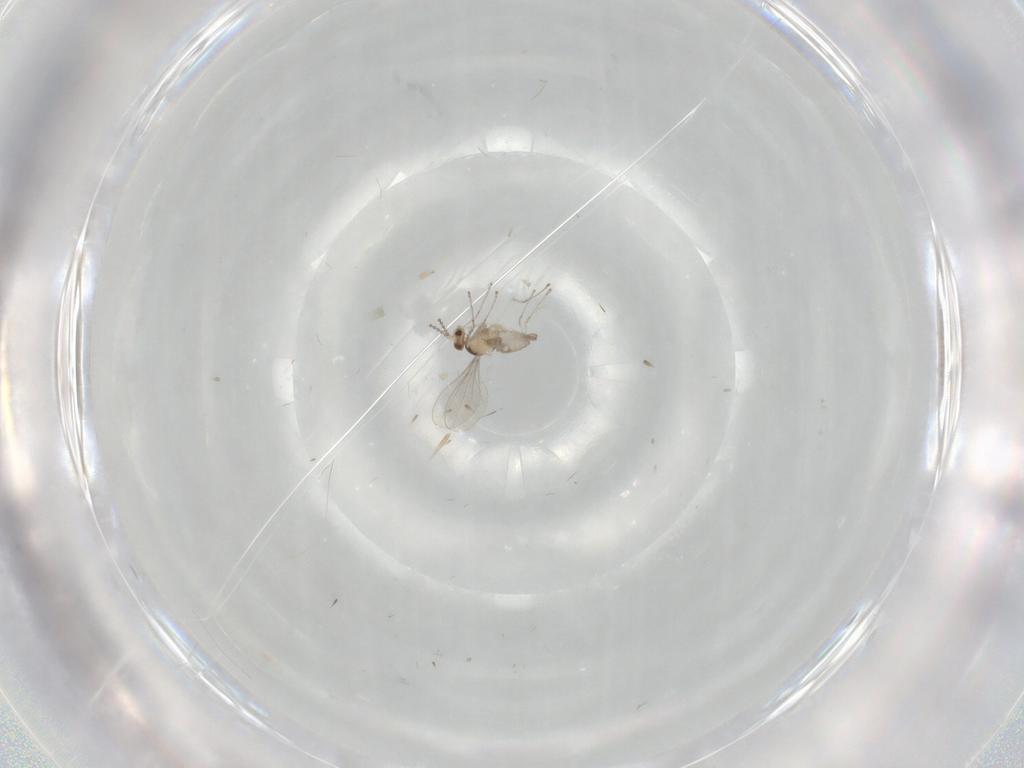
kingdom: Animalia
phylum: Arthropoda
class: Insecta
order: Diptera
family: Cecidomyiidae
